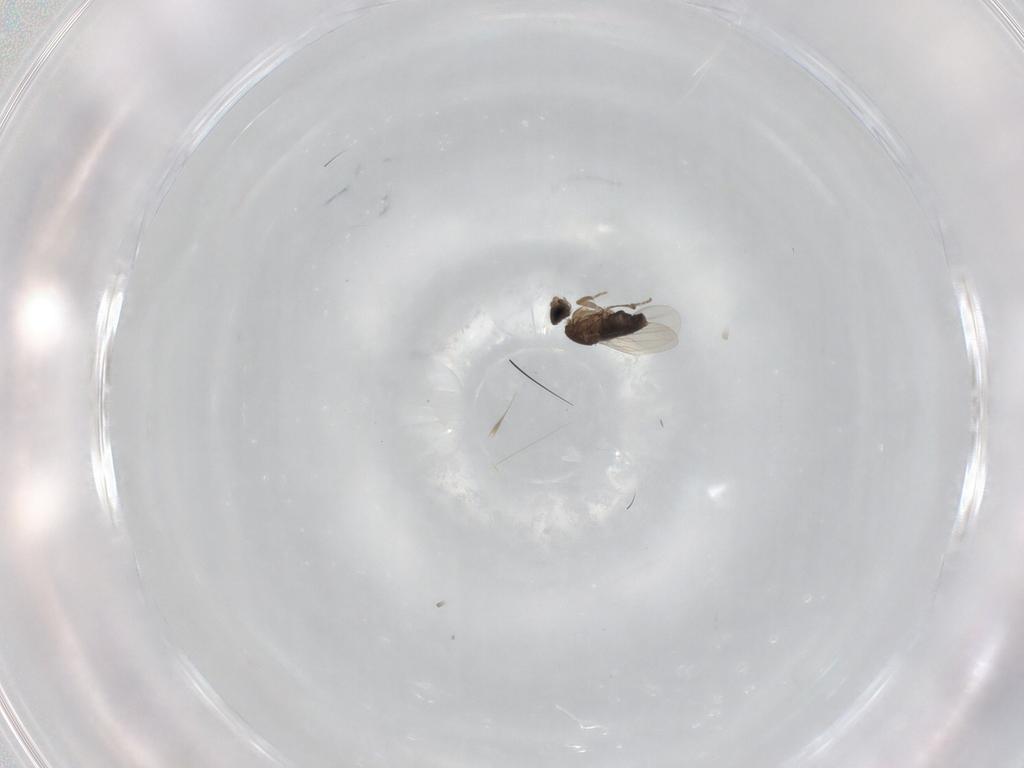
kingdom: Animalia
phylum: Arthropoda
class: Insecta
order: Diptera
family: Phoridae
